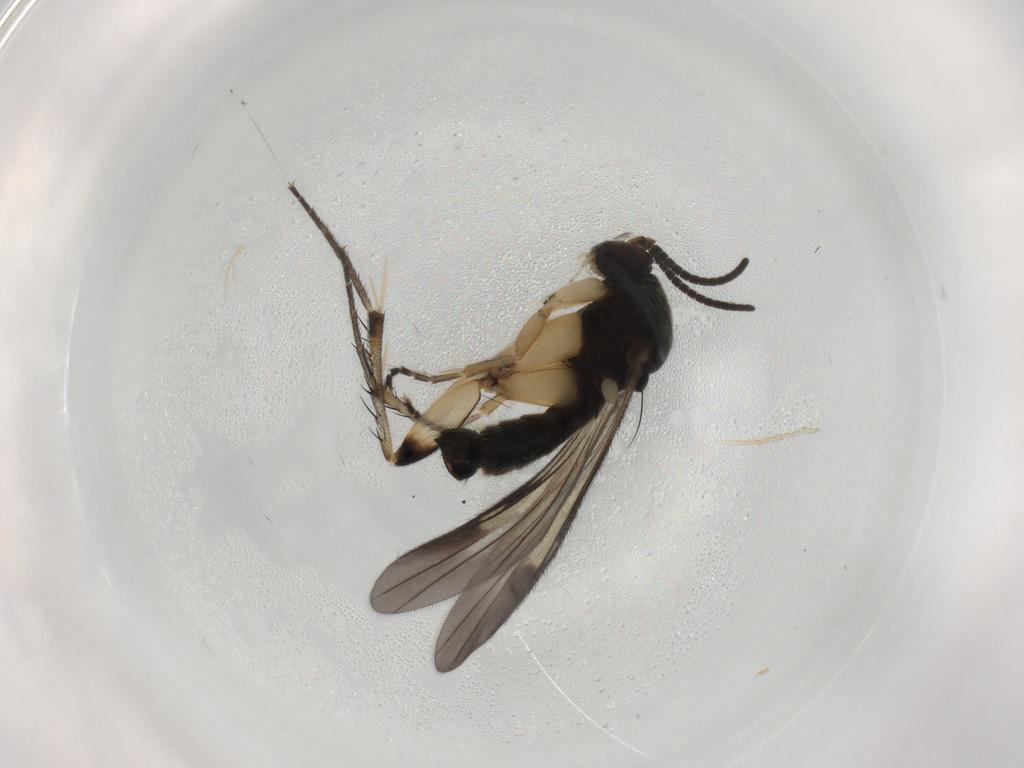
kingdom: Animalia
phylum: Arthropoda
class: Insecta
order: Diptera
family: Mycetophilidae
